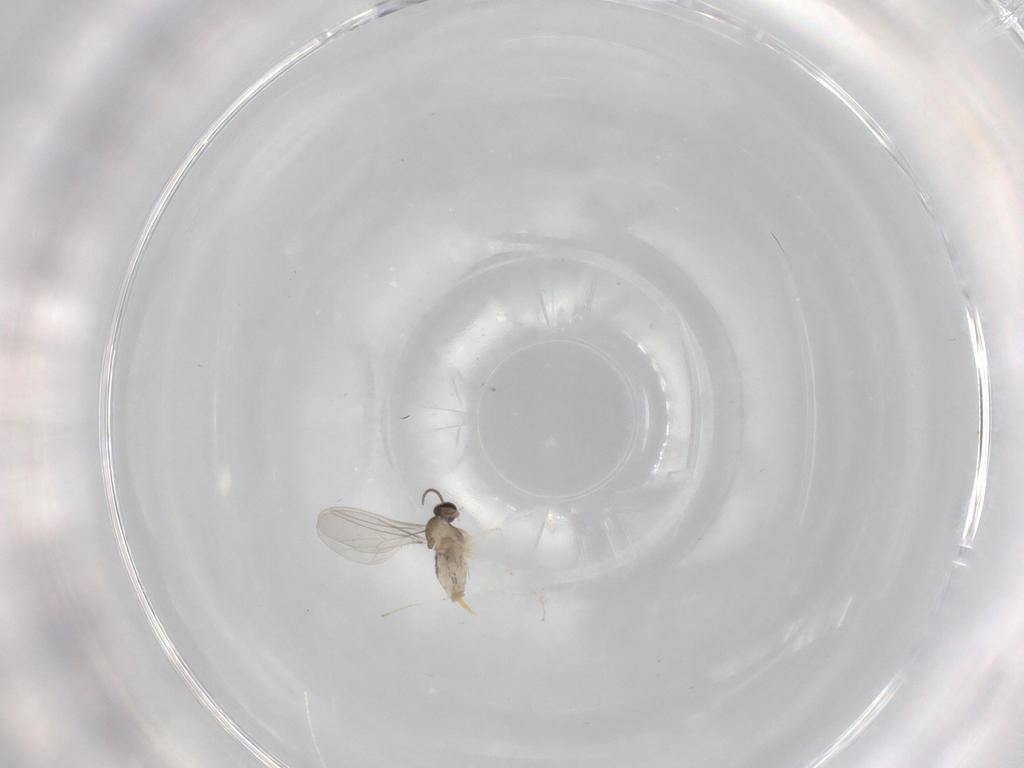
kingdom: Animalia
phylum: Arthropoda
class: Insecta
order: Diptera
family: Cecidomyiidae
